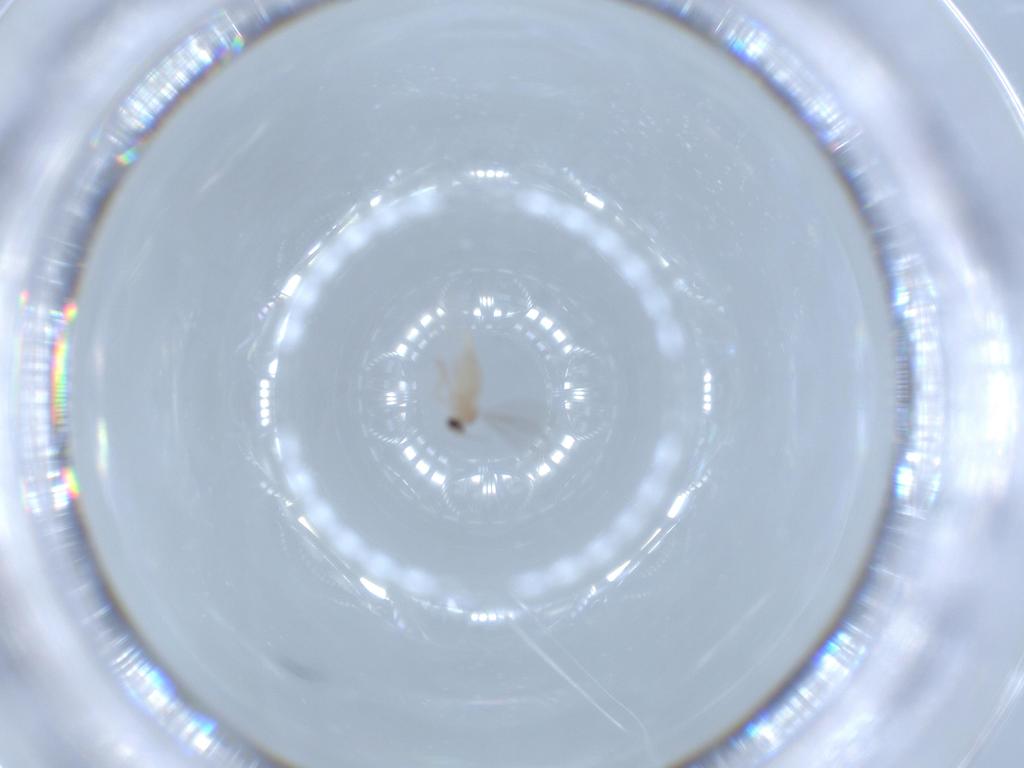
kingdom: Animalia
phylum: Arthropoda
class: Insecta
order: Diptera
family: Cecidomyiidae
